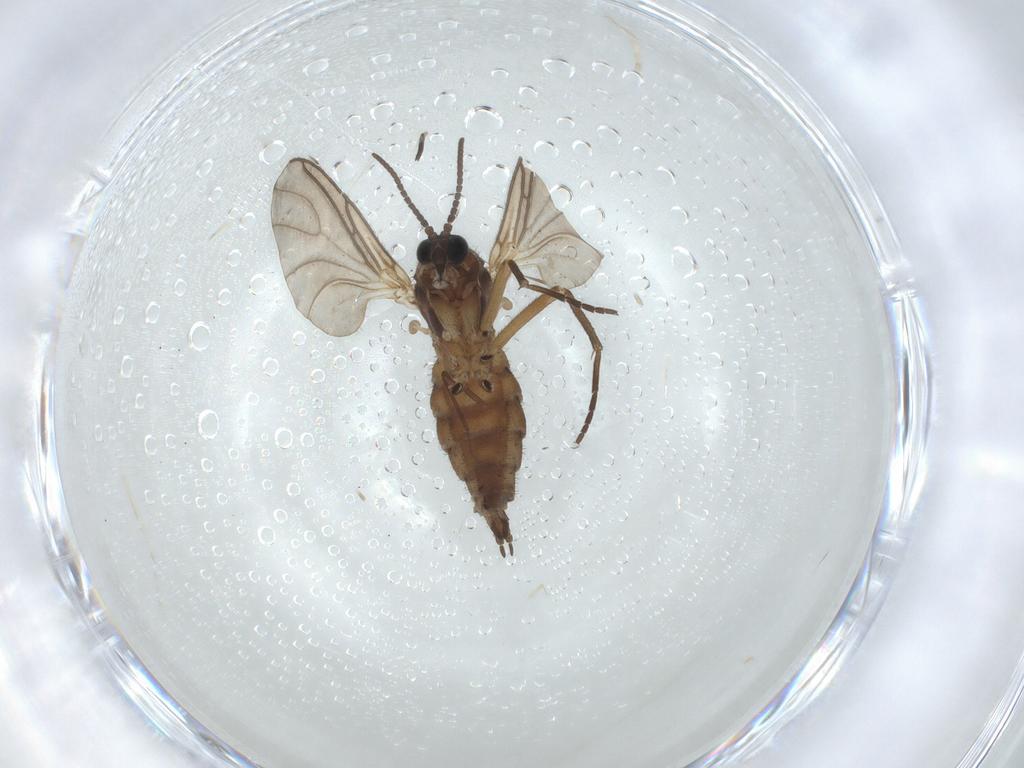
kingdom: Animalia
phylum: Arthropoda
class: Insecta
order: Diptera
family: Sciaridae
